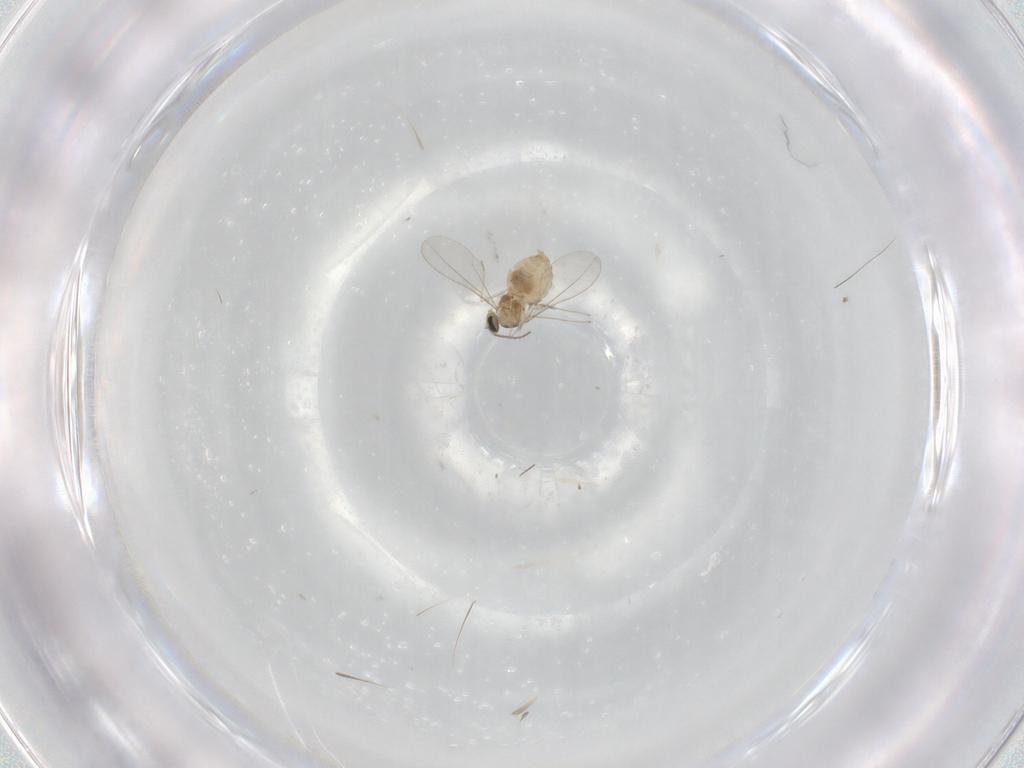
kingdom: Animalia
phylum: Arthropoda
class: Insecta
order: Diptera
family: Cecidomyiidae
